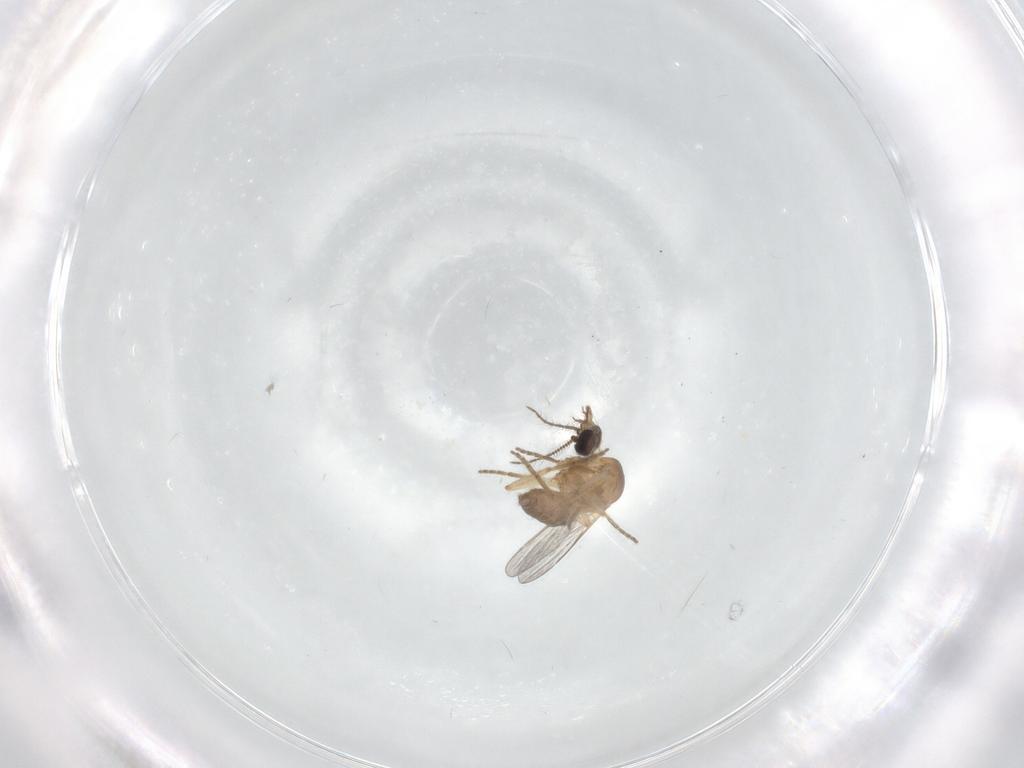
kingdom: Animalia
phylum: Arthropoda
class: Insecta
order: Diptera
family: Ceratopogonidae
